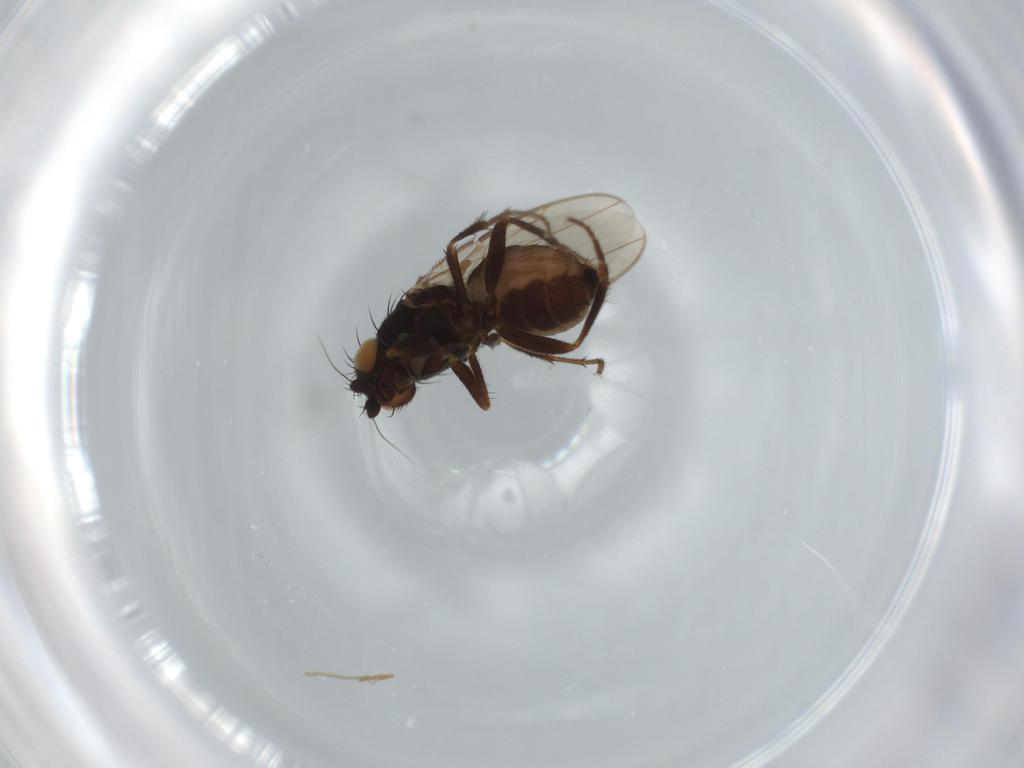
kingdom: Animalia
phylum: Arthropoda
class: Insecta
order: Diptera
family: Sphaeroceridae
